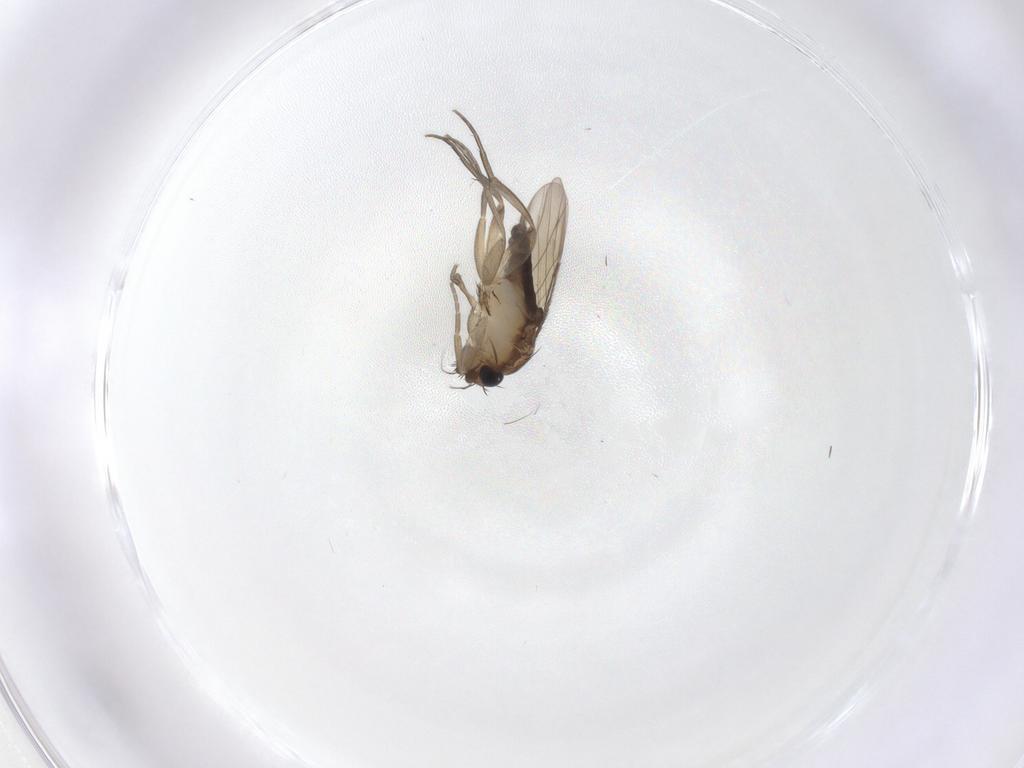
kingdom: Animalia
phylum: Arthropoda
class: Insecta
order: Diptera
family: Phoridae
